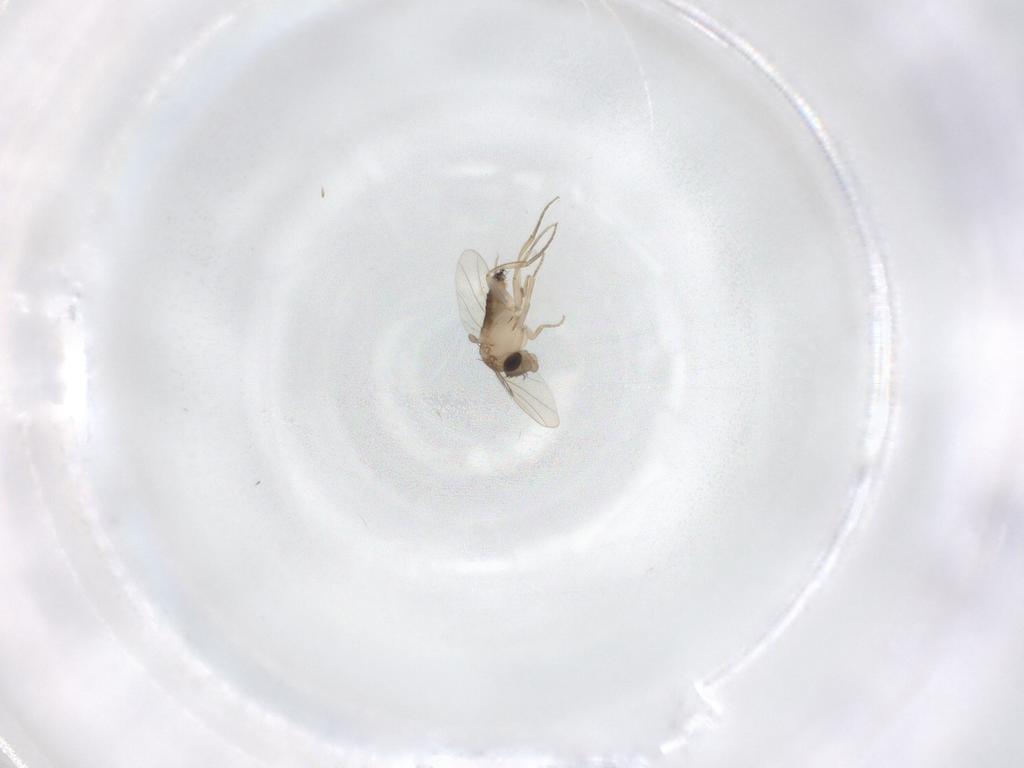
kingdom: Animalia
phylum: Arthropoda
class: Insecta
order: Diptera
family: Phoridae
